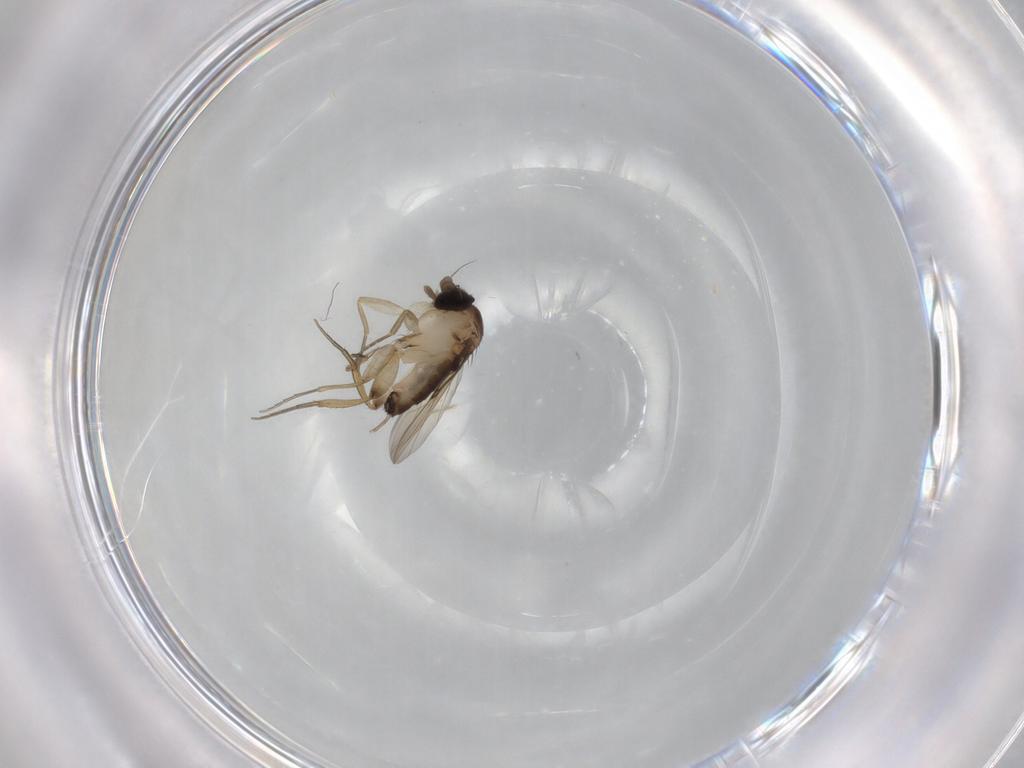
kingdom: Animalia
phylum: Arthropoda
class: Insecta
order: Diptera
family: Phoridae
